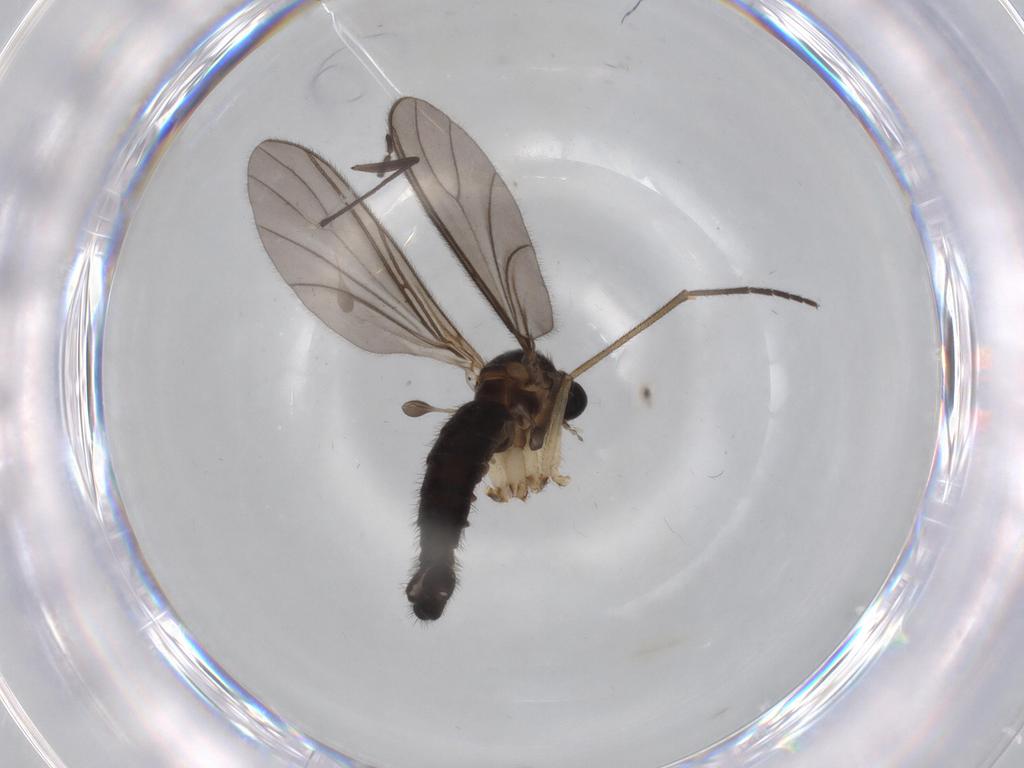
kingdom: Animalia
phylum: Arthropoda
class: Insecta
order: Diptera
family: Sciaridae
